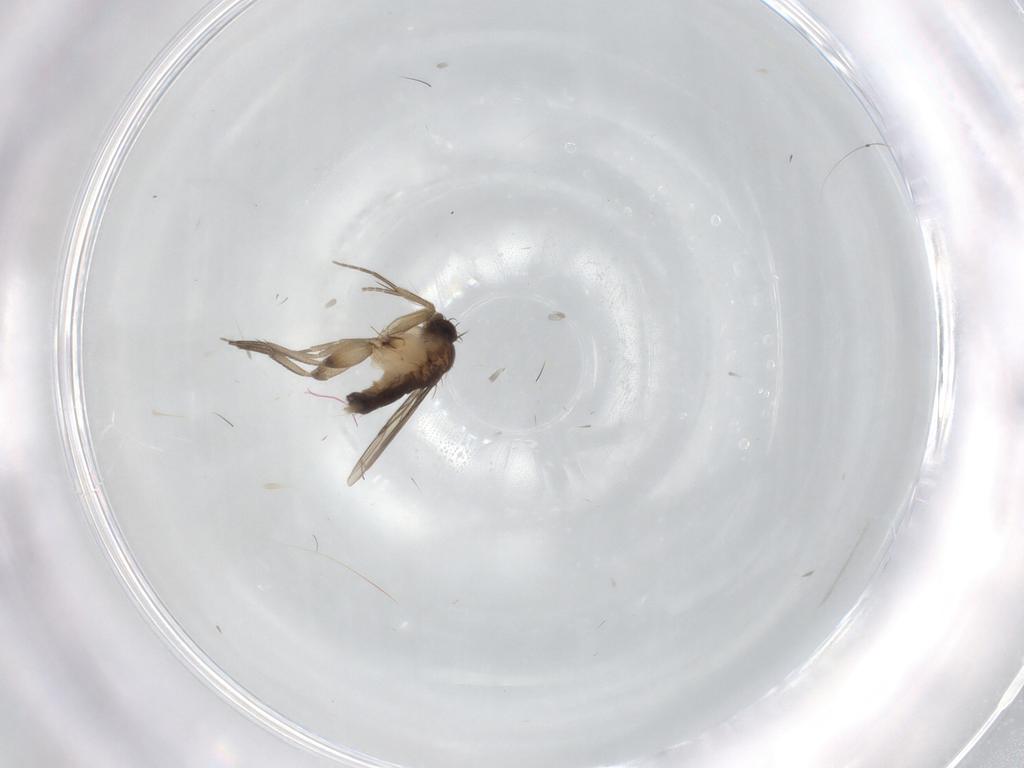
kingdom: Animalia
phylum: Arthropoda
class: Insecta
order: Diptera
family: Phoridae
